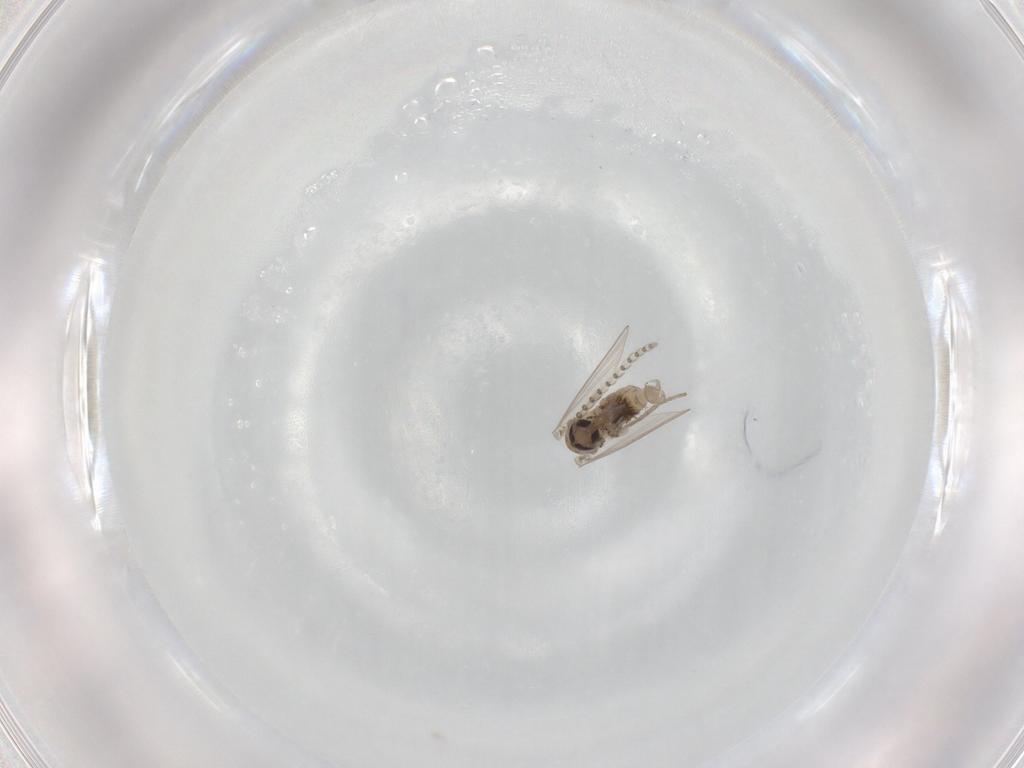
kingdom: Animalia
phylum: Arthropoda
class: Insecta
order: Diptera
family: Psychodidae
